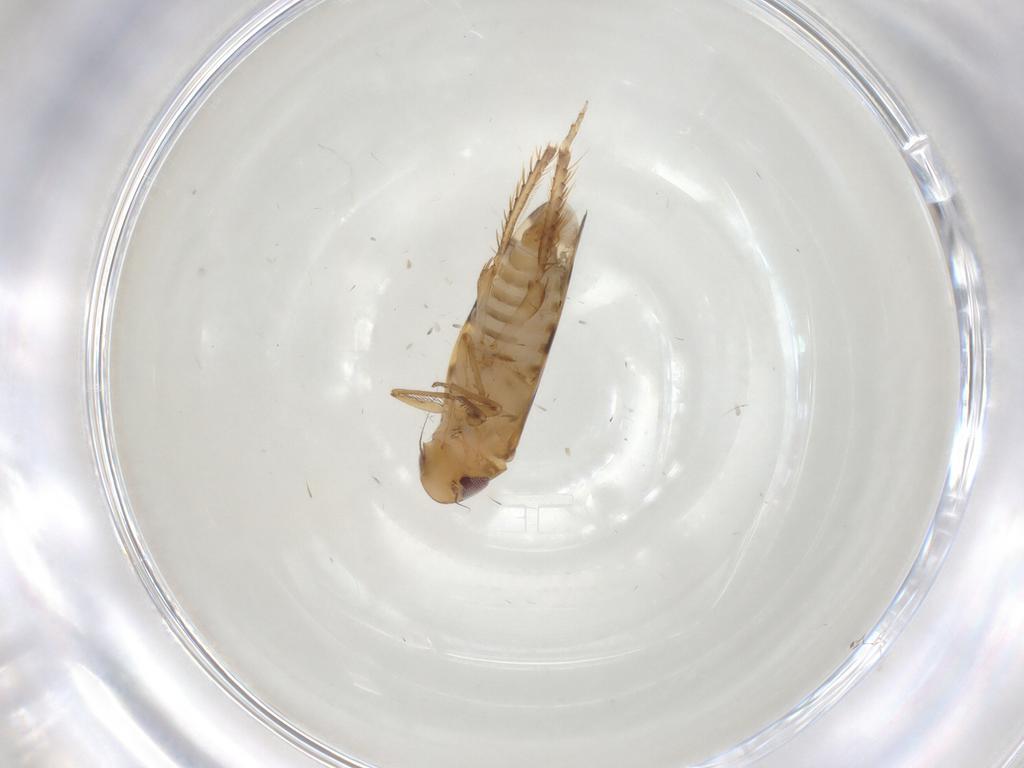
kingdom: Animalia
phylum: Arthropoda
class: Insecta
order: Hemiptera
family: Cicadellidae
